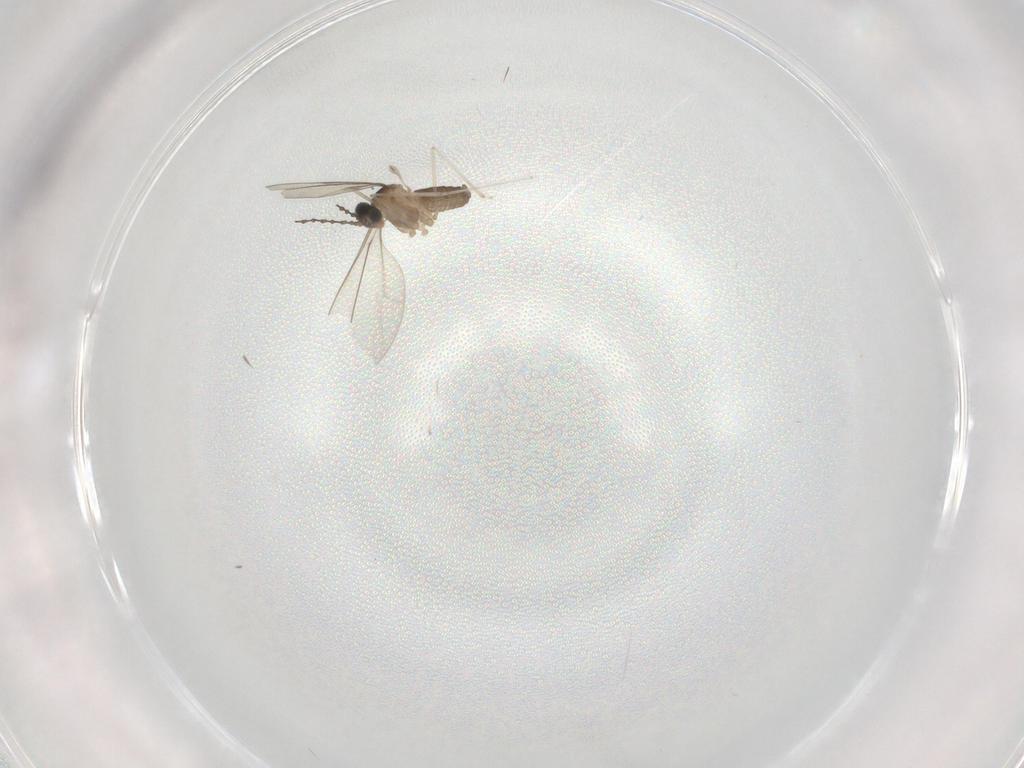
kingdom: Animalia
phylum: Arthropoda
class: Insecta
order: Diptera
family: Cecidomyiidae
